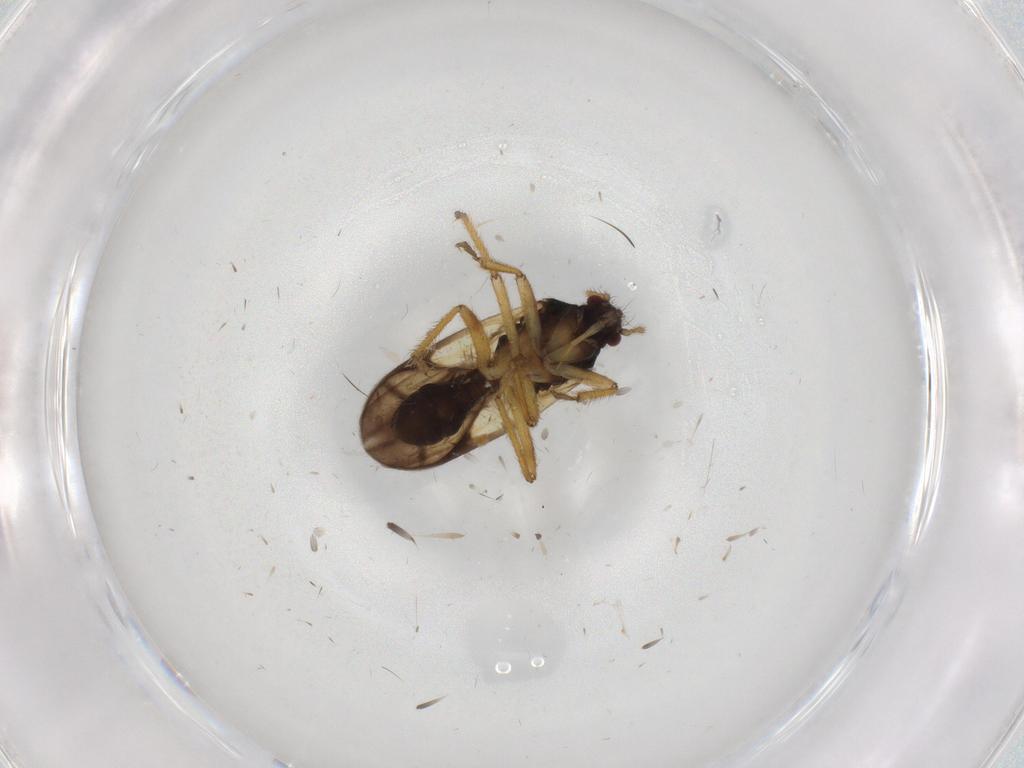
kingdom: Animalia
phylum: Arthropoda
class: Insecta
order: Hemiptera
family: Ceratocombidae
